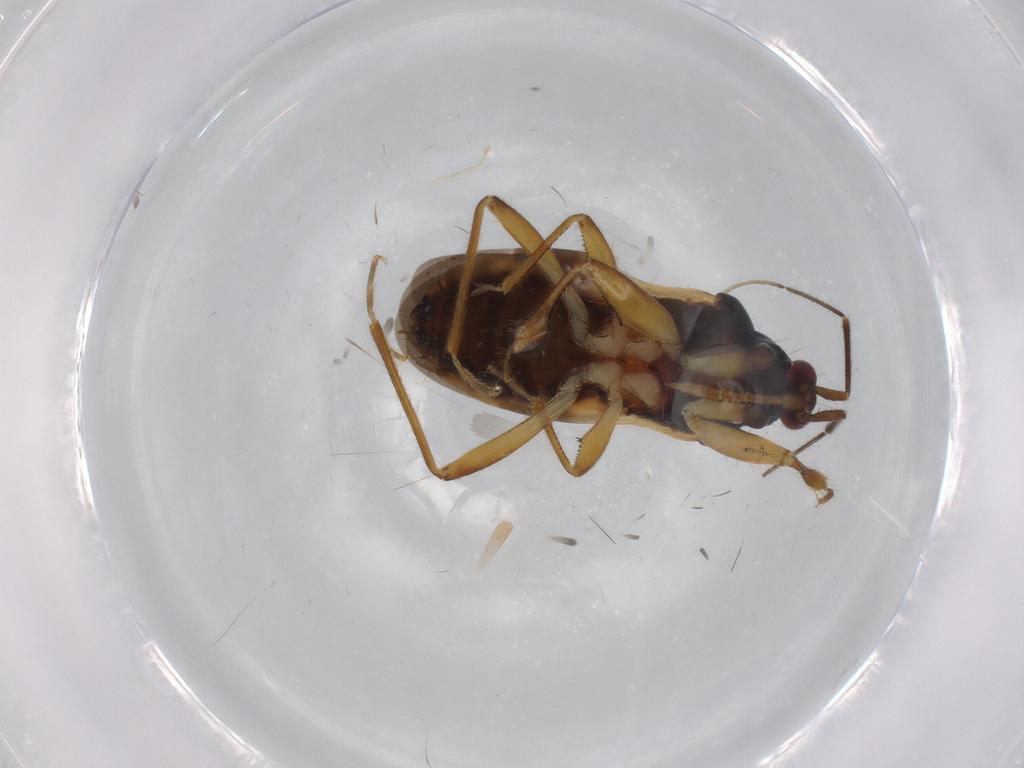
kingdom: Animalia
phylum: Arthropoda
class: Insecta
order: Hemiptera
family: Nabidae
